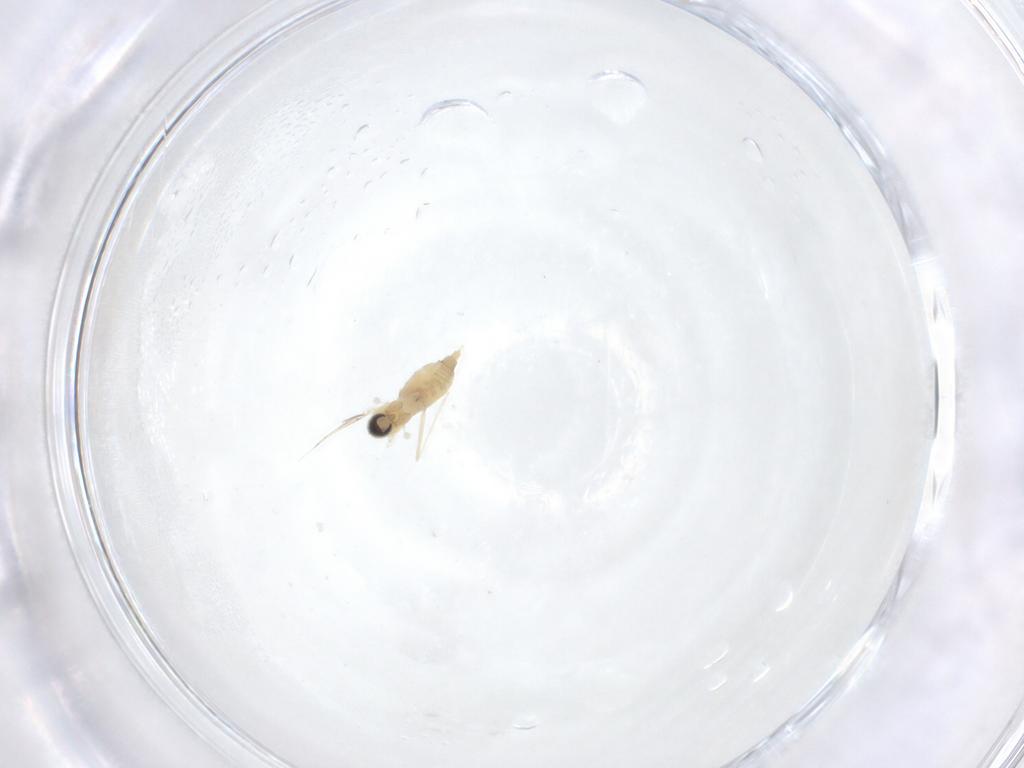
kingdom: Animalia
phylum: Arthropoda
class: Insecta
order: Diptera
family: Cecidomyiidae
